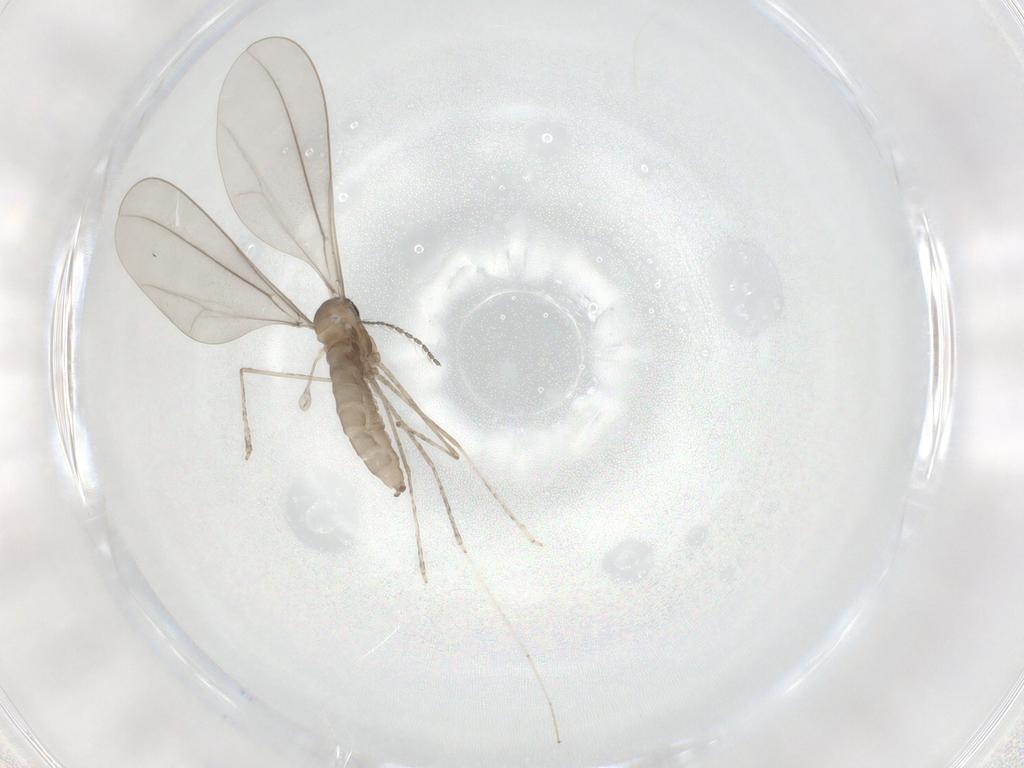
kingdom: Animalia
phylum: Arthropoda
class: Insecta
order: Diptera
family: Cecidomyiidae
